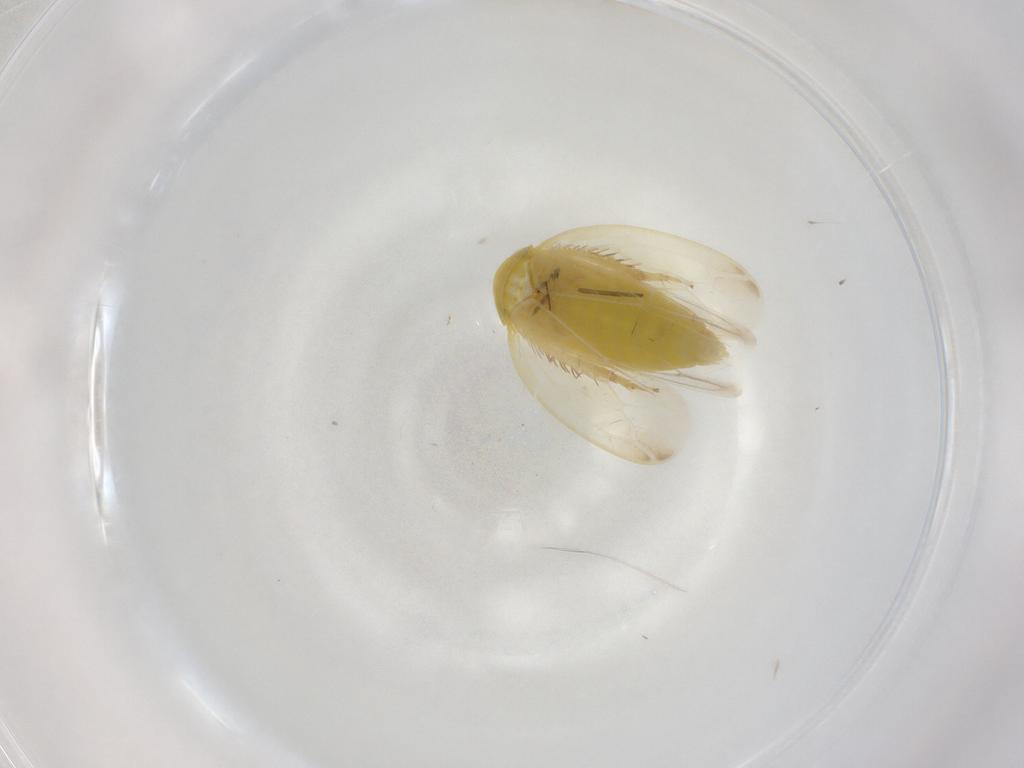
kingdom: Animalia
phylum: Arthropoda
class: Insecta
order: Hemiptera
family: Cicadellidae
